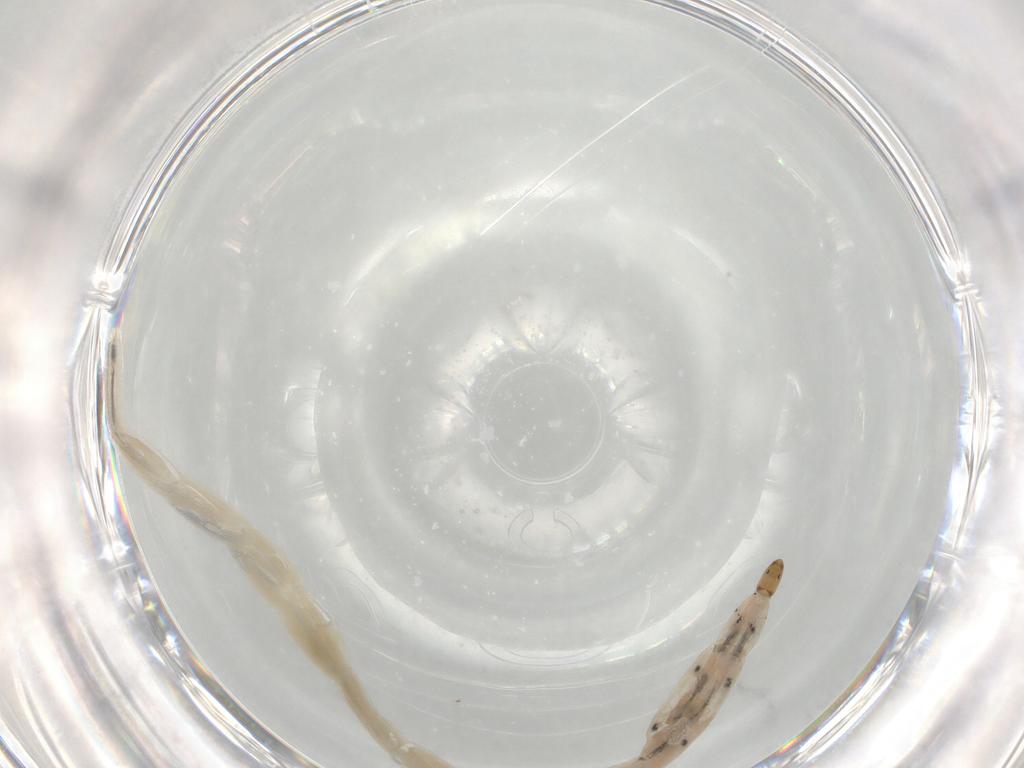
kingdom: Animalia
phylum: Arthropoda
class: Insecta
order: Diptera
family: Ceratopogonidae
